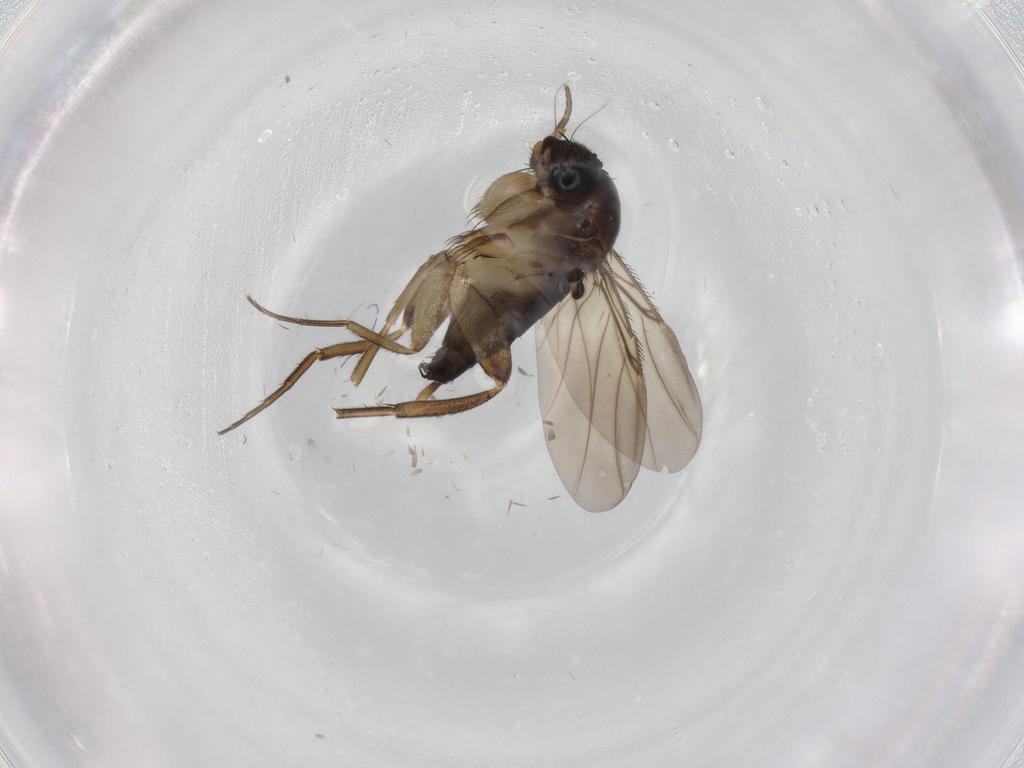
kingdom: Animalia
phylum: Arthropoda
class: Insecta
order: Diptera
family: Phoridae
